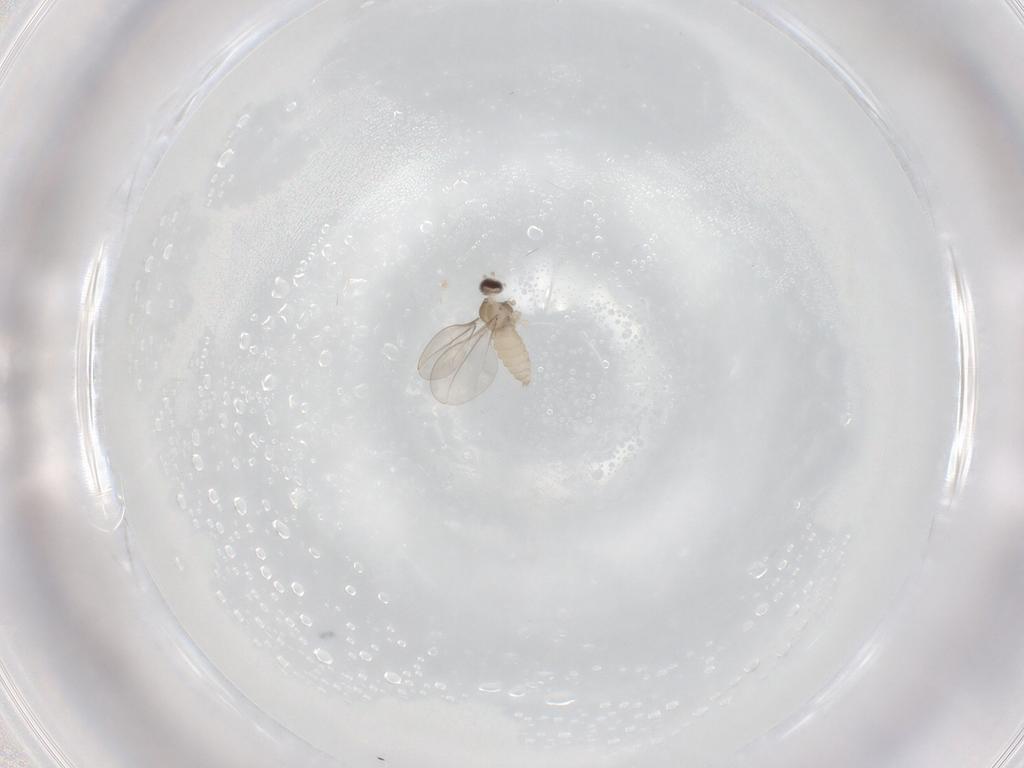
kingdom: Animalia
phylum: Arthropoda
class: Insecta
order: Diptera
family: Cecidomyiidae
